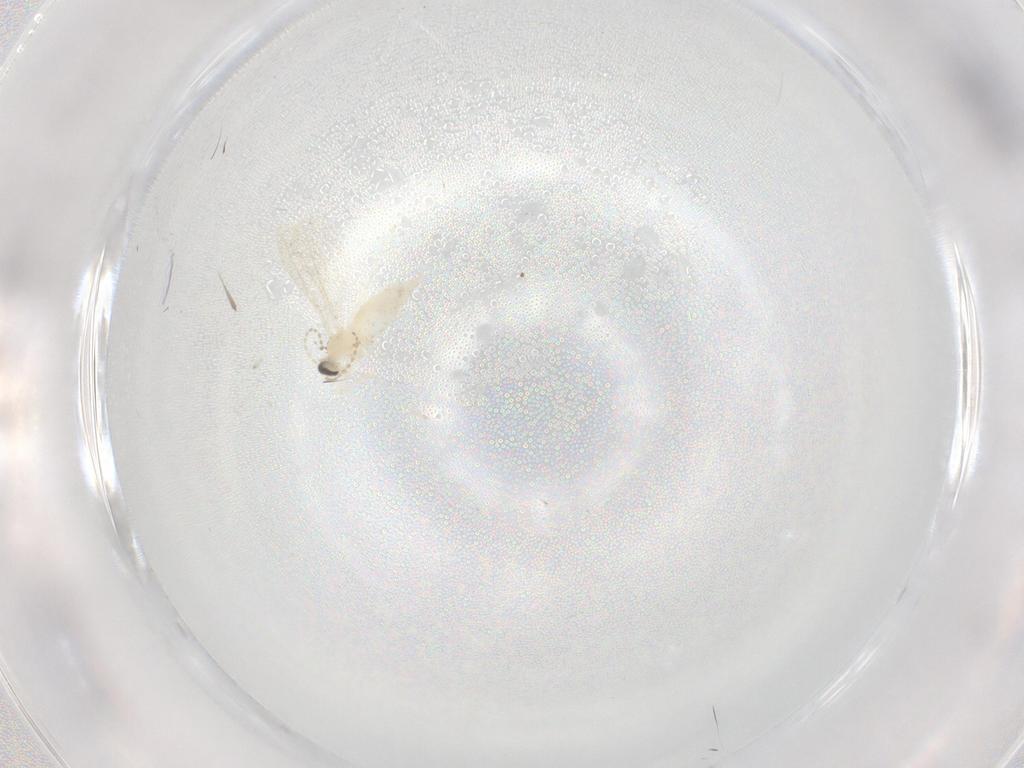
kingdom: Animalia
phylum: Arthropoda
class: Insecta
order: Diptera
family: Cecidomyiidae
